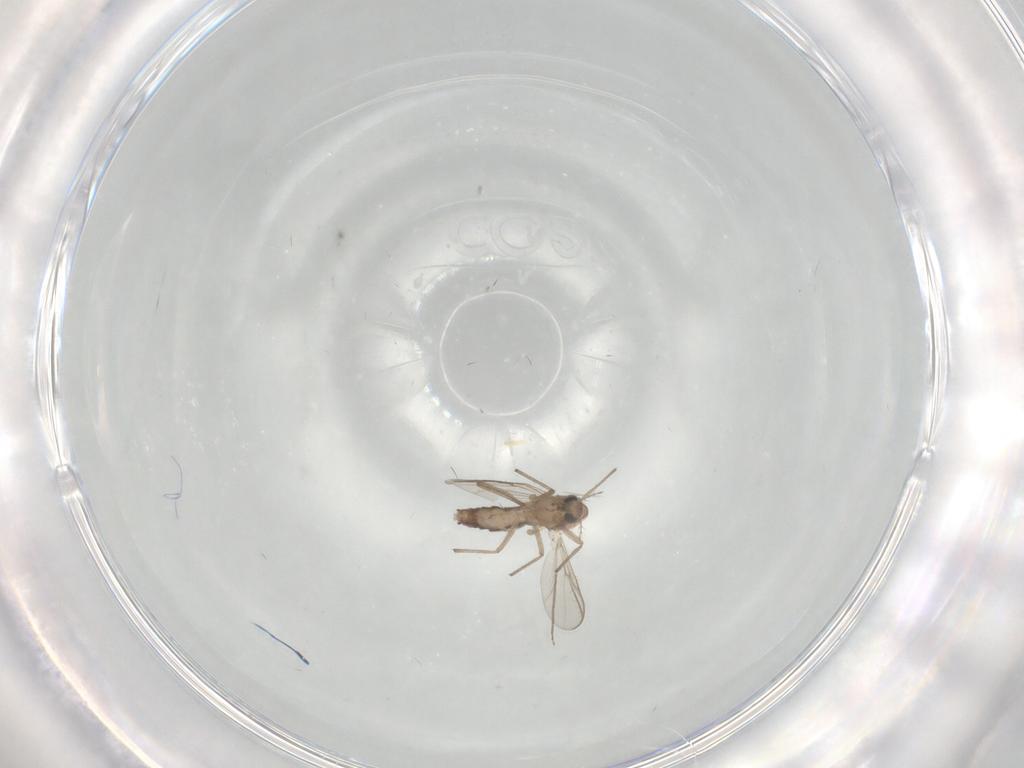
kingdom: Animalia
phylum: Arthropoda
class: Insecta
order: Diptera
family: Chironomidae
